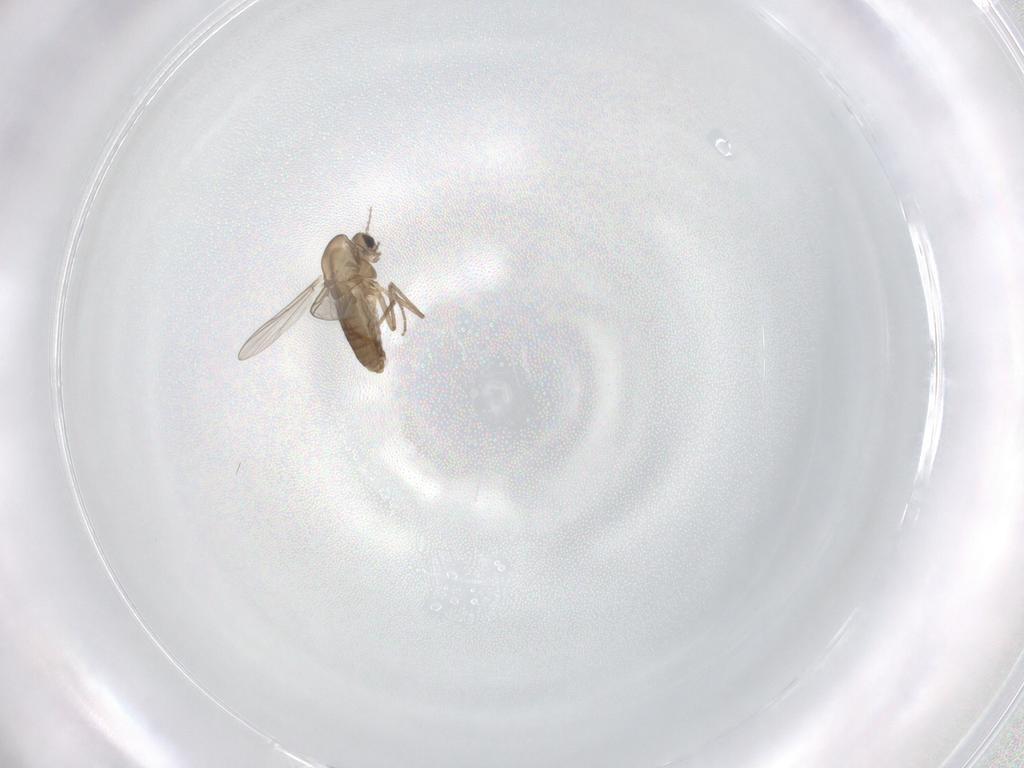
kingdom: Animalia
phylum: Arthropoda
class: Insecta
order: Diptera
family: Chironomidae
